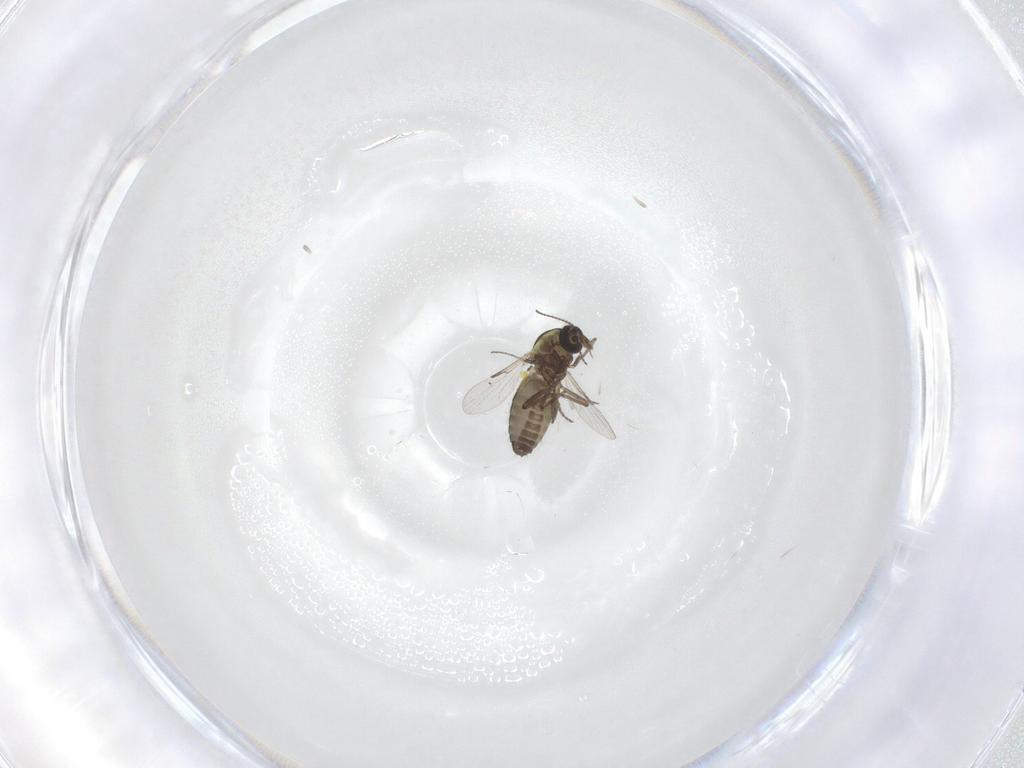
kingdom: Animalia
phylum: Arthropoda
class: Insecta
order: Diptera
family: Ceratopogonidae
